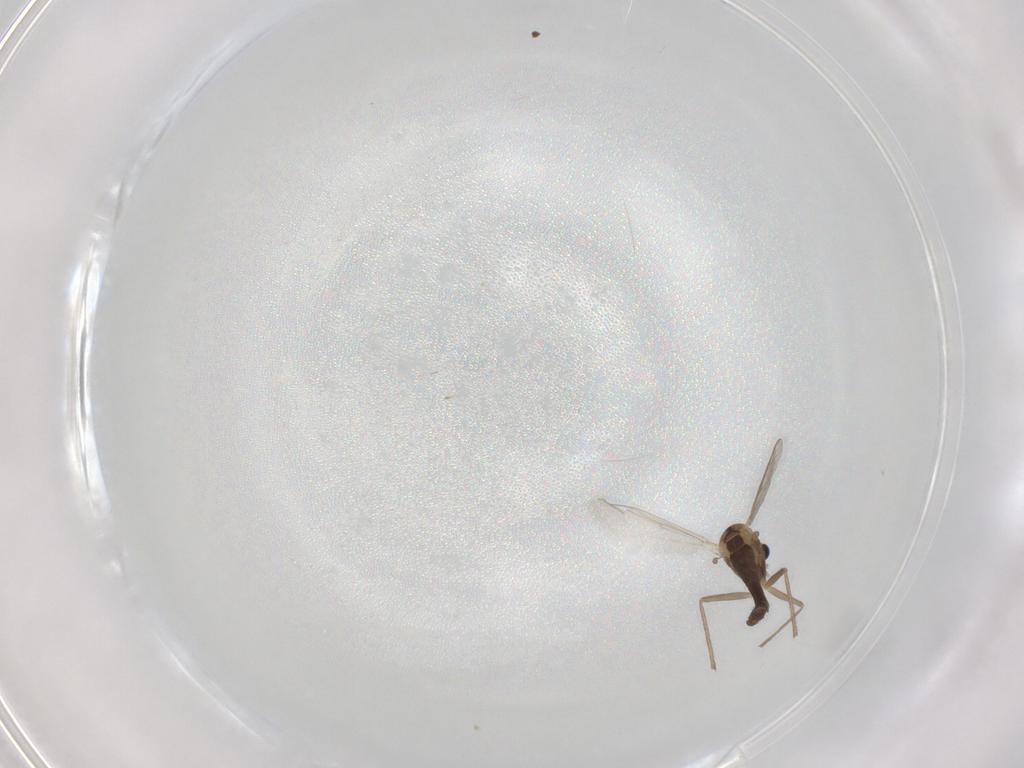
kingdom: Animalia
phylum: Arthropoda
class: Insecta
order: Diptera
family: Chironomidae
